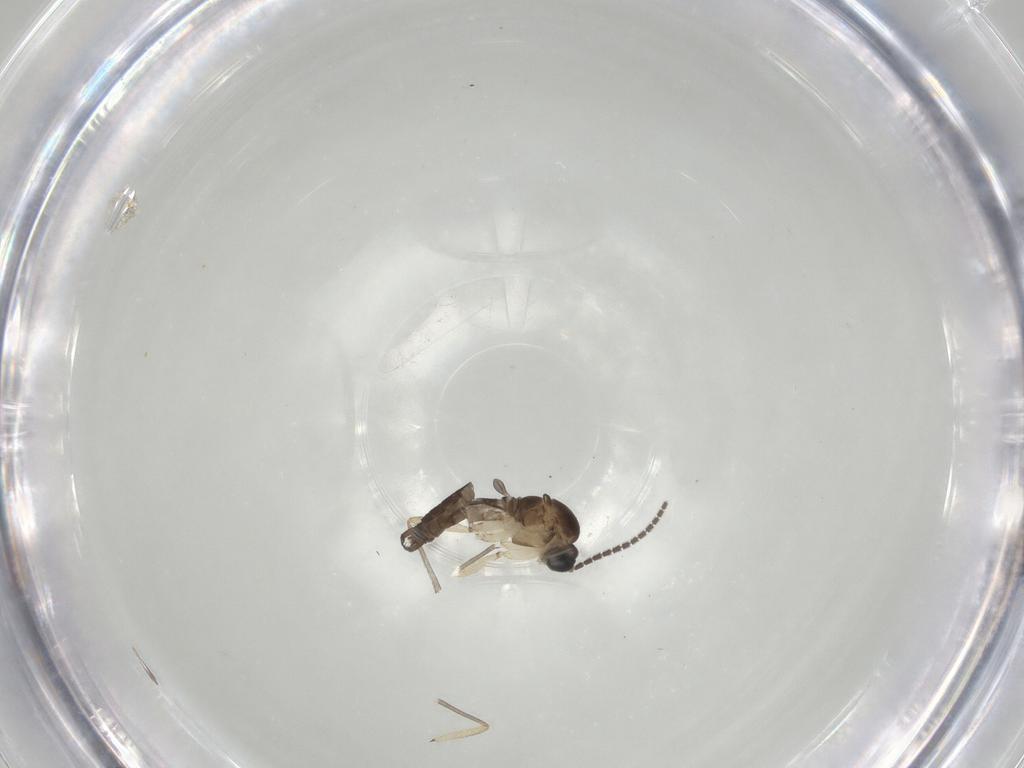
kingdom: Animalia
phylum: Arthropoda
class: Insecta
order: Diptera
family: Sciaridae
